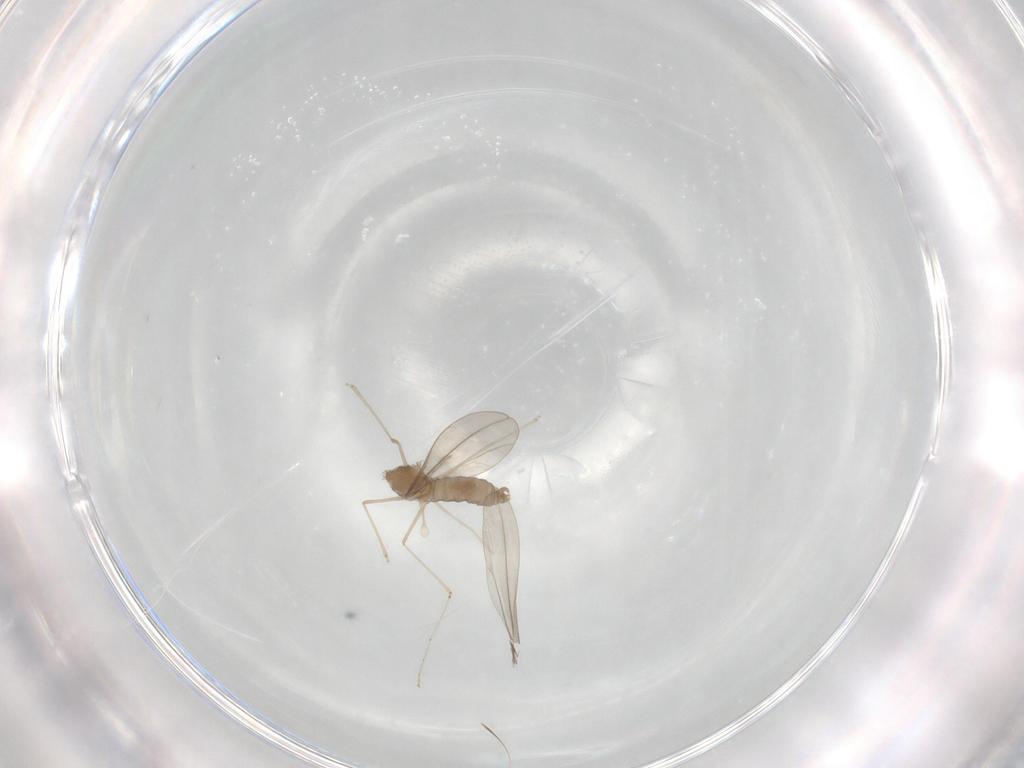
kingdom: Animalia
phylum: Arthropoda
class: Insecta
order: Diptera
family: Cecidomyiidae
